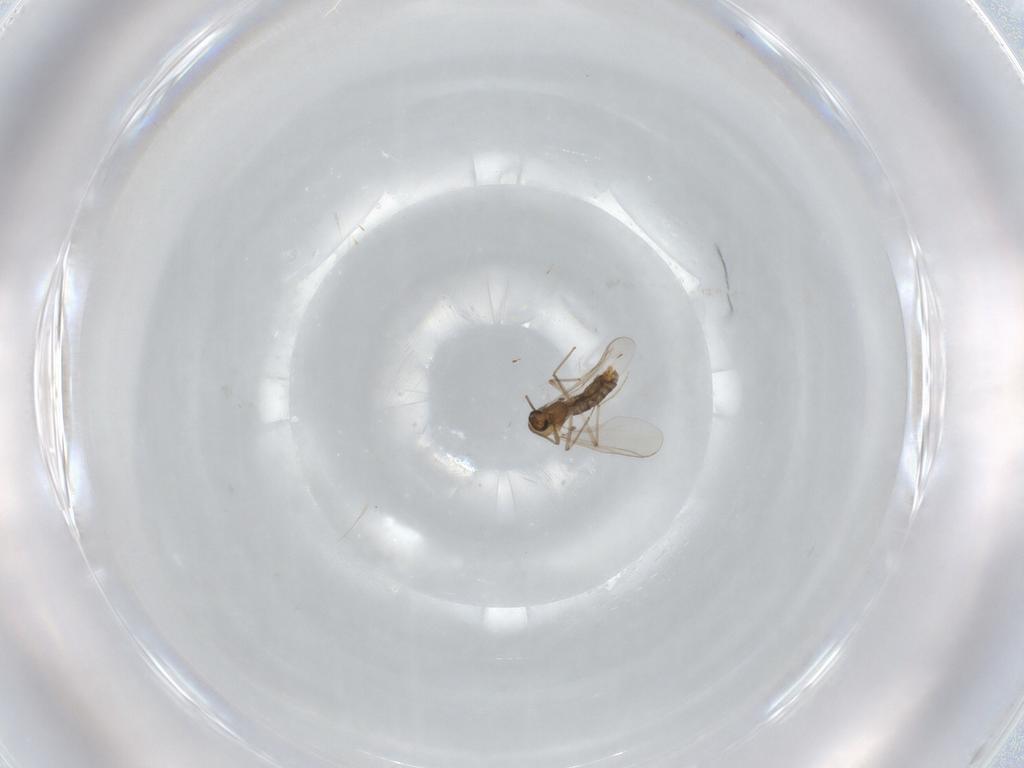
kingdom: Animalia
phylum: Arthropoda
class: Insecta
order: Diptera
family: Chironomidae
